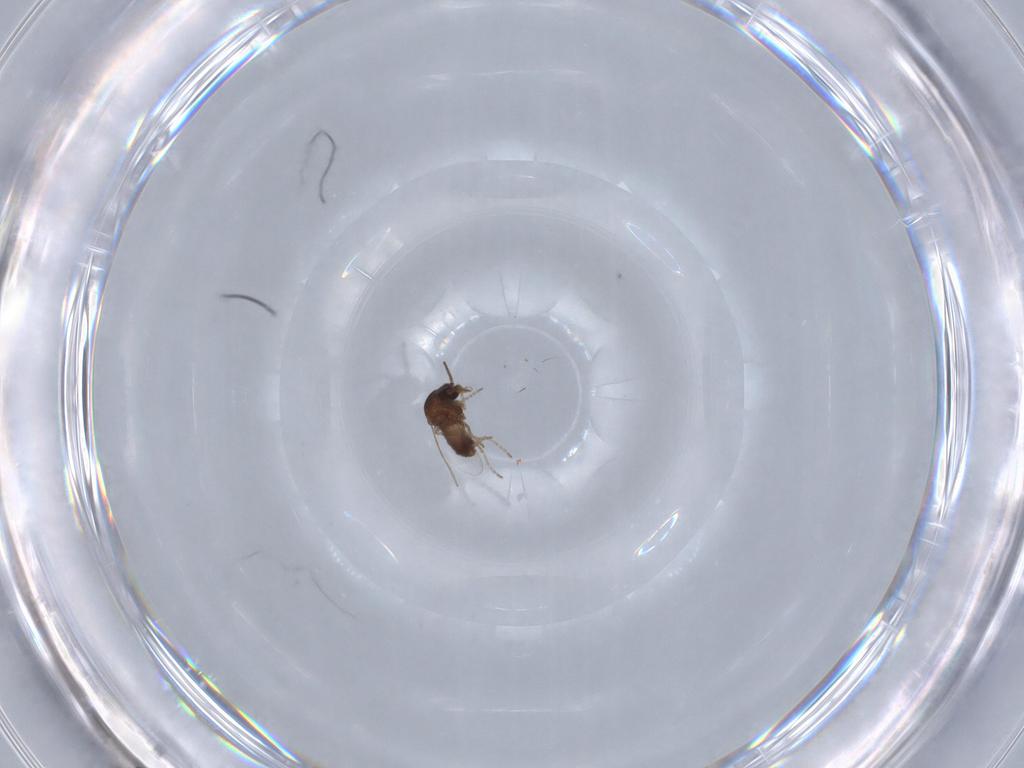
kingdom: Animalia
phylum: Arthropoda
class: Insecta
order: Diptera
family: Ceratopogonidae
